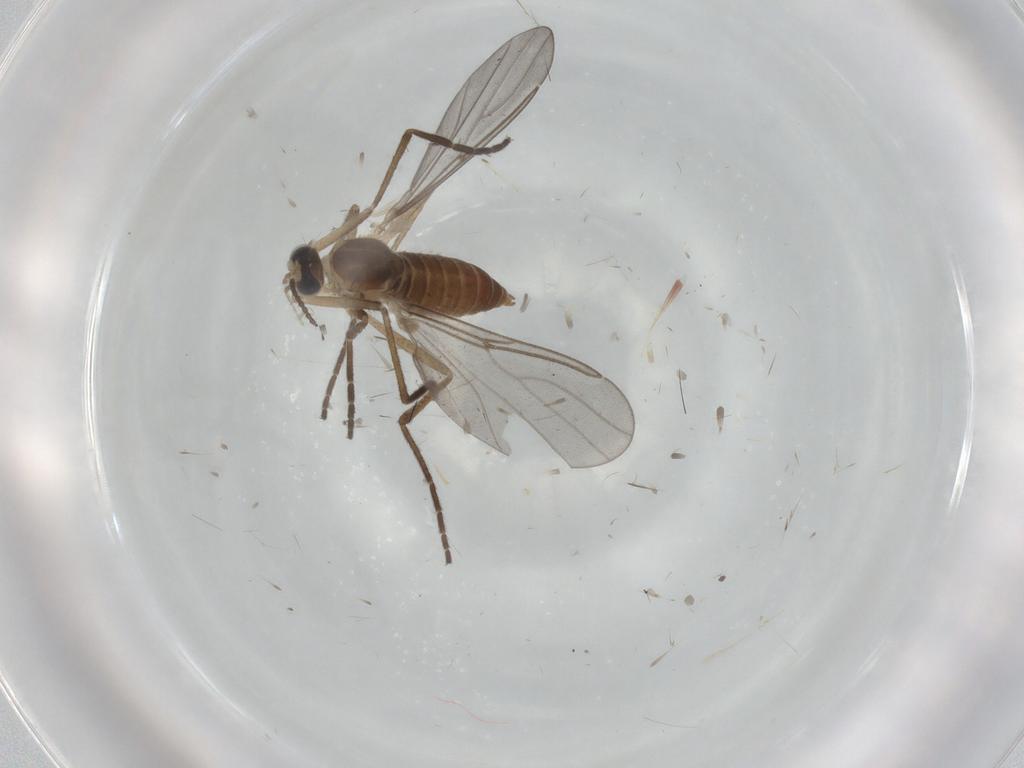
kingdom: Animalia
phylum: Arthropoda
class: Insecta
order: Diptera
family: Cecidomyiidae
